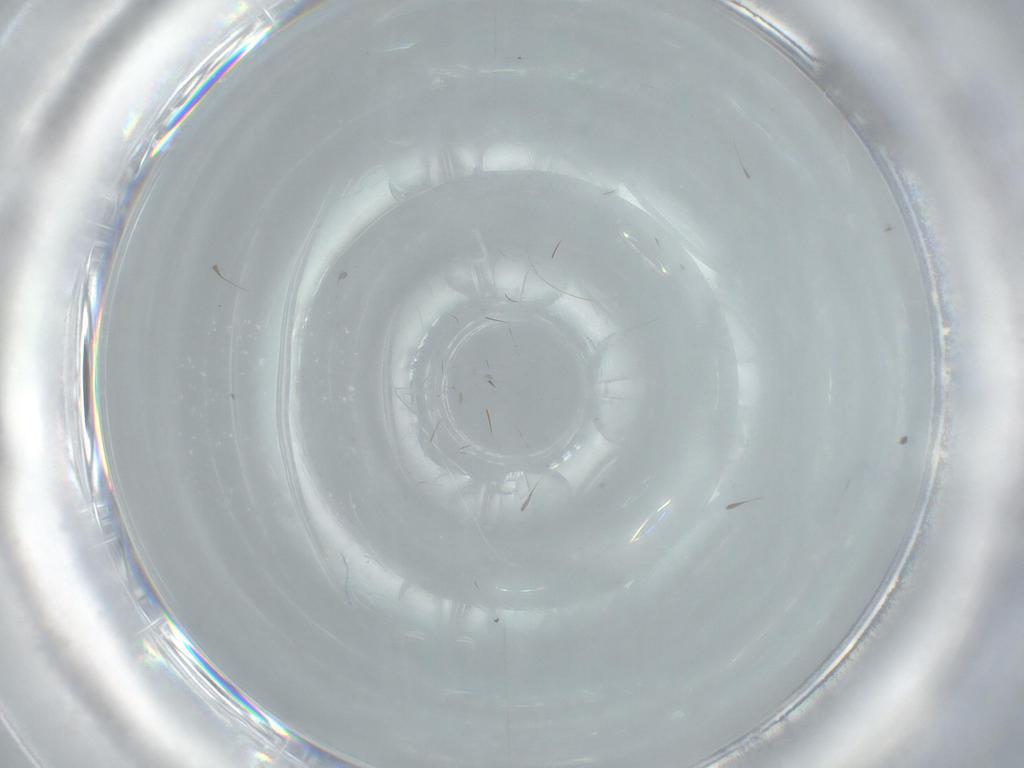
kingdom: Animalia
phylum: Arthropoda
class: Insecta
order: Diptera
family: Cecidomyiidae
